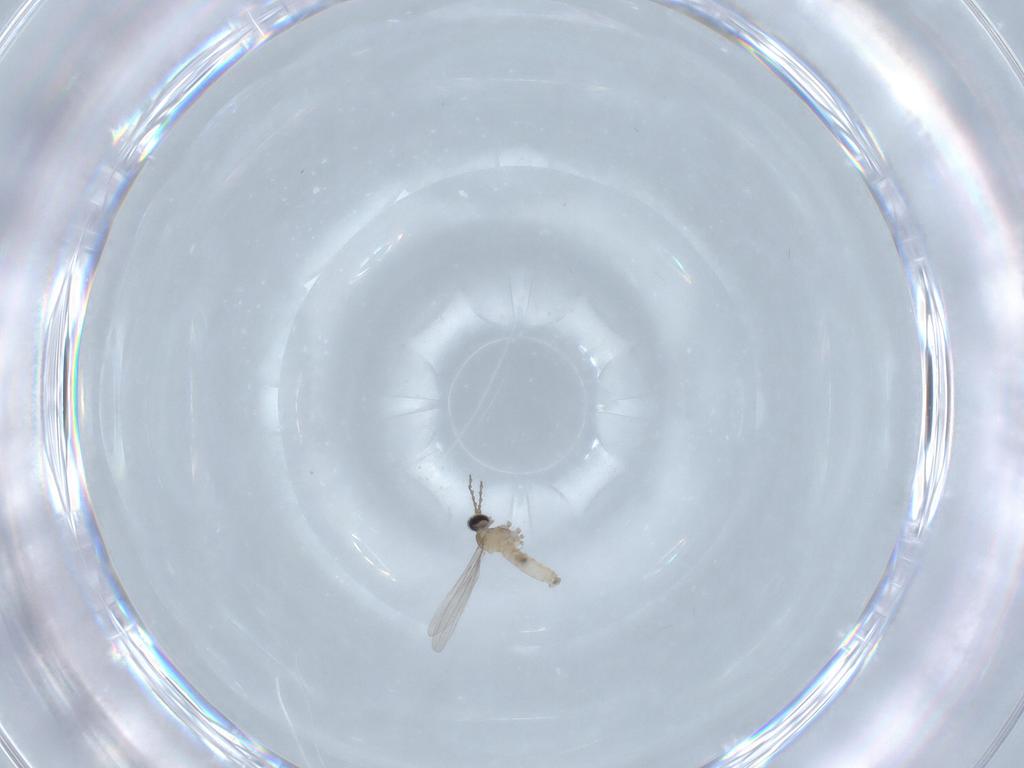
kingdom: Animalia
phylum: Arthropoda
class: Insecta
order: Diptera
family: Cecidomyiidae
